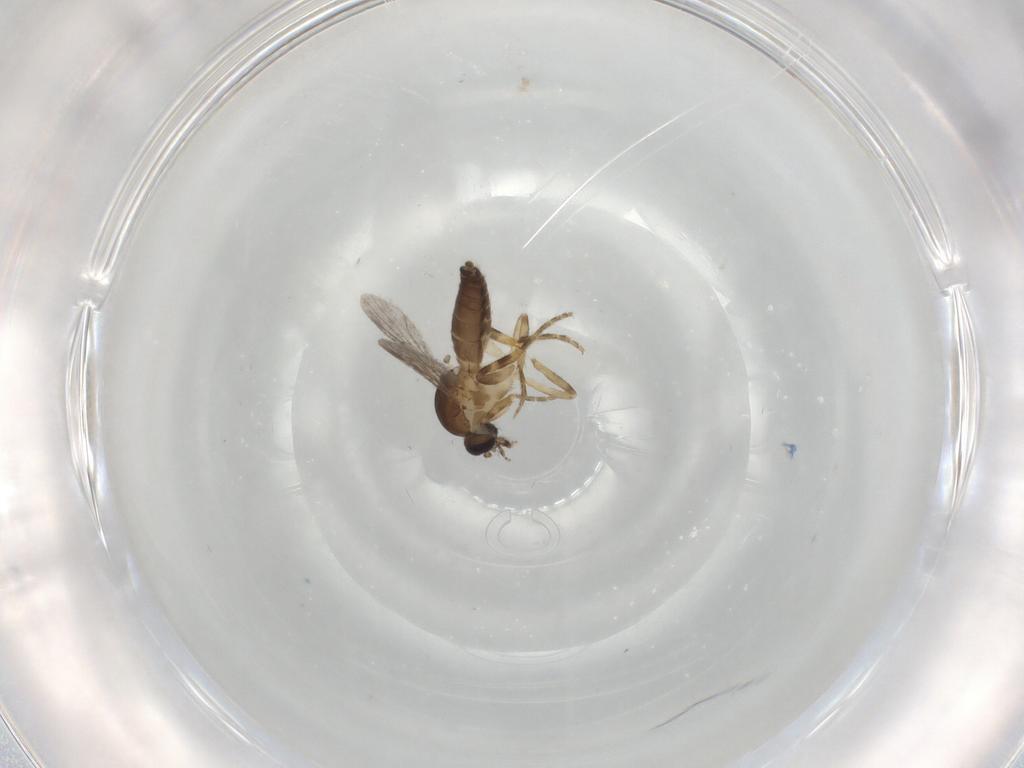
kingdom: Animalia
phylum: Arthropoda
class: Insecta
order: Diptera
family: Ceratopogonidae
